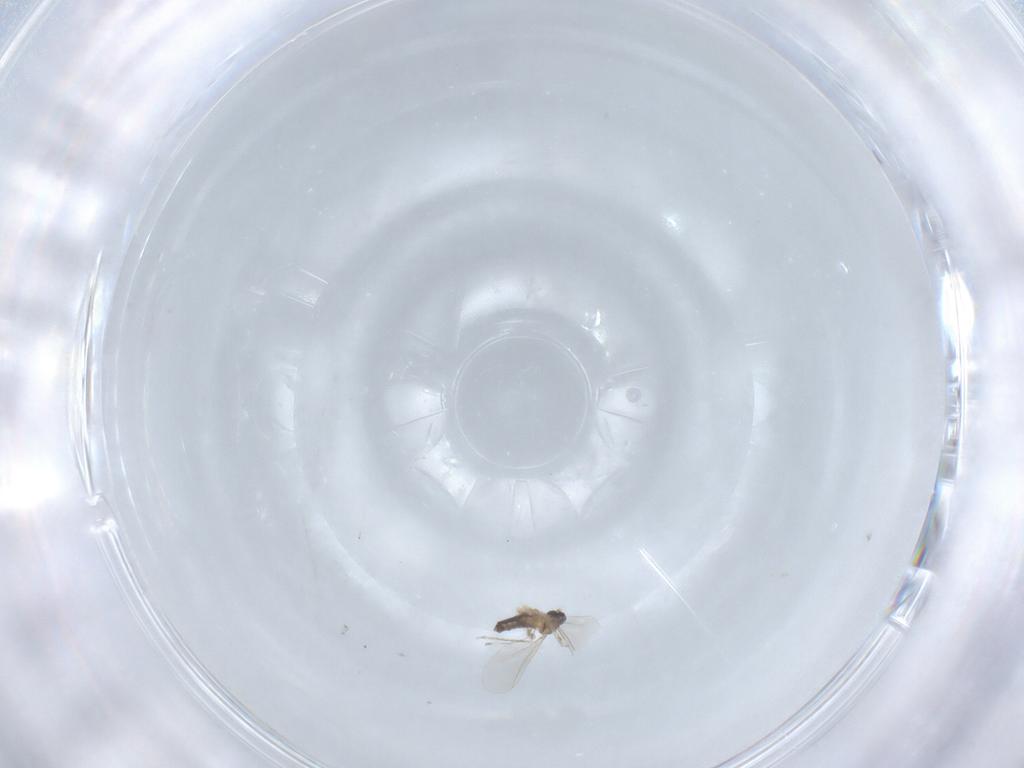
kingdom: Animalia
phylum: Arthropoda
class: Insecta
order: Diptera
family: Cecidomyiidae
